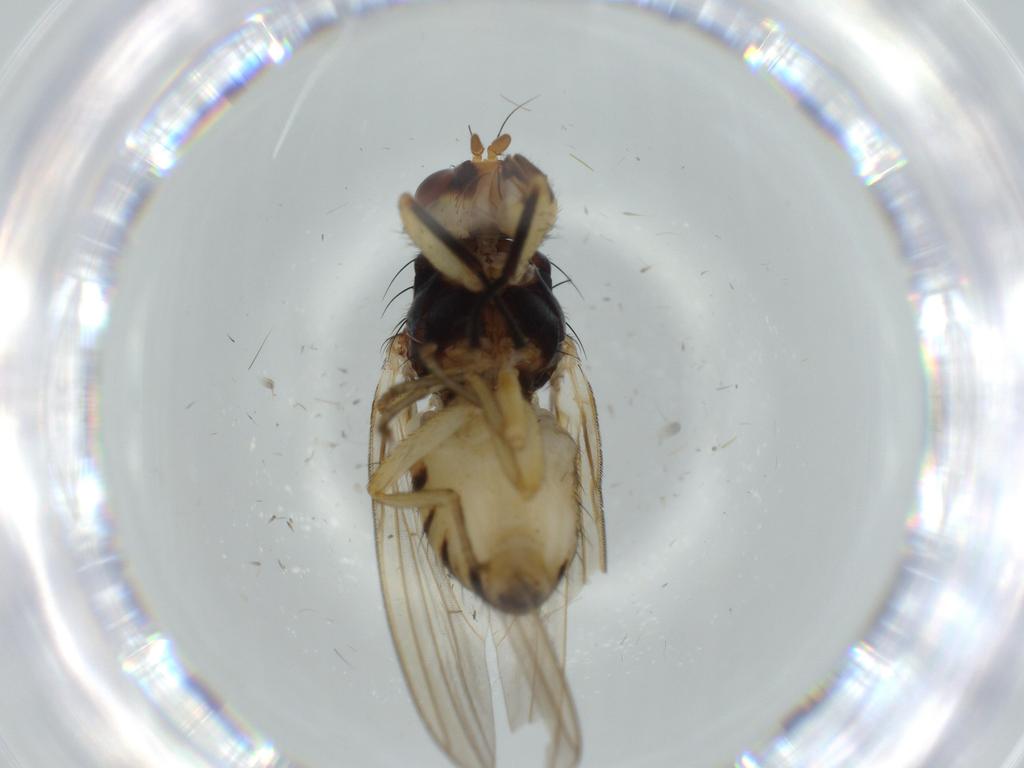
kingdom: Animalia
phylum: Arthropoda
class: Insecta
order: Diptera
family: Lauxaniidae
